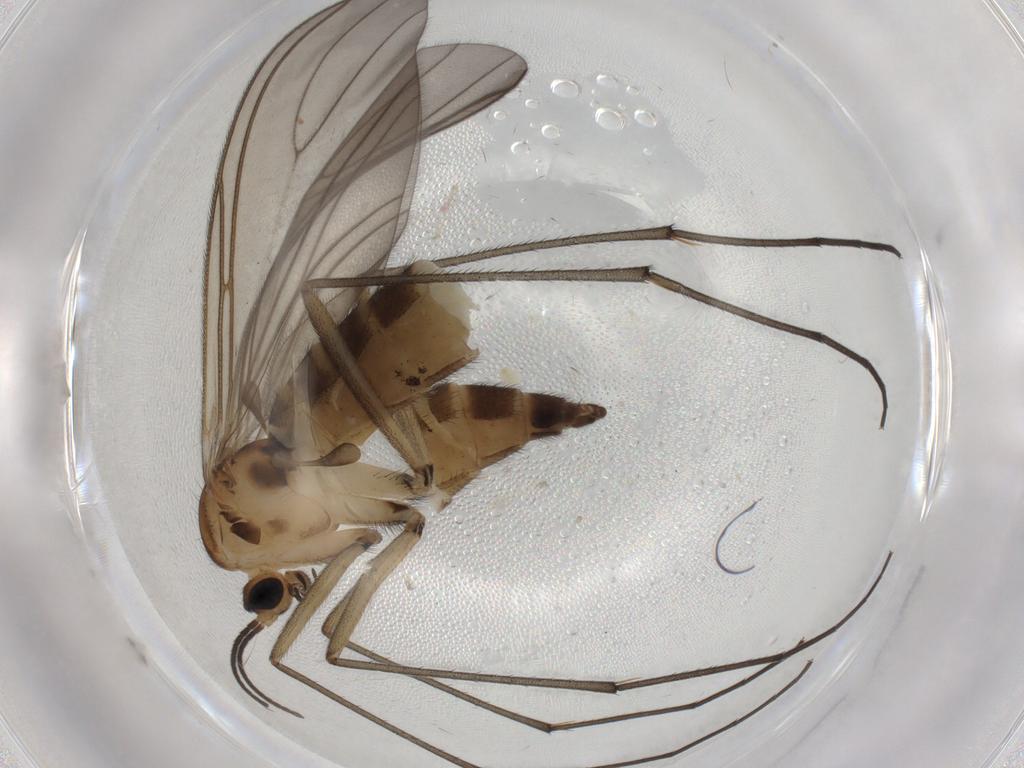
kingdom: Animalia
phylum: Arthropoda
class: Insecta
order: Diptera
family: Sciaridae
